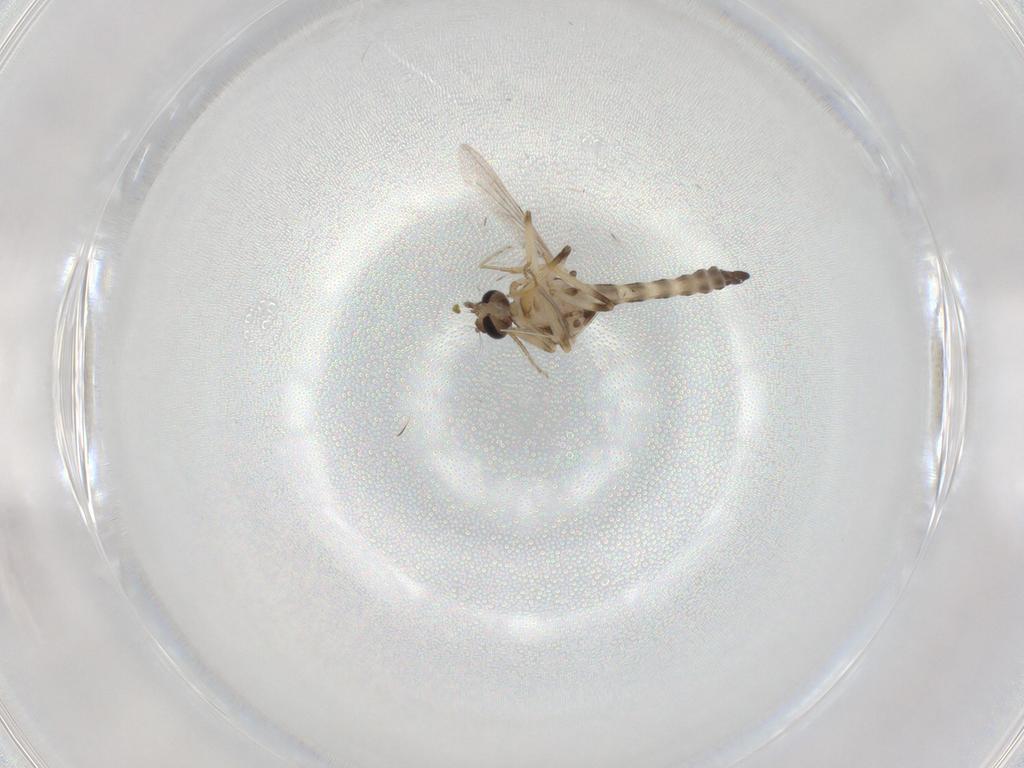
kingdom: Animalia
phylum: Arthropoda
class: Insecta
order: Diptera
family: Ceratopogonidae
